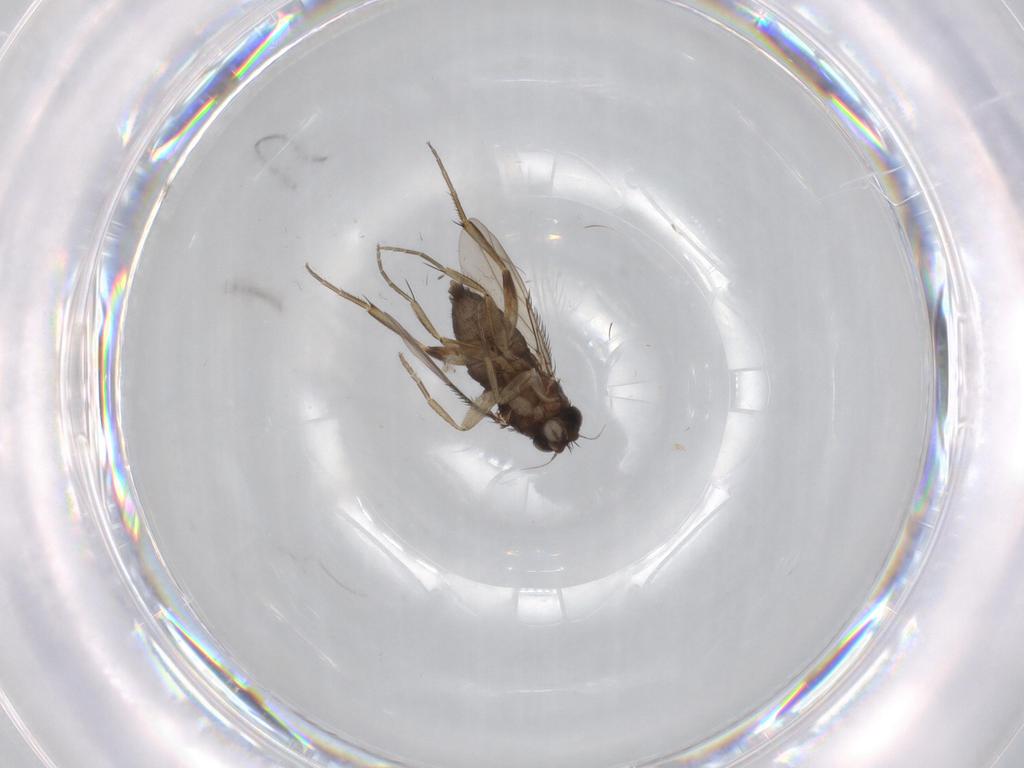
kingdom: Animalia
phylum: Arthropoda
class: Insecta
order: Diptera
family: Phoridae
